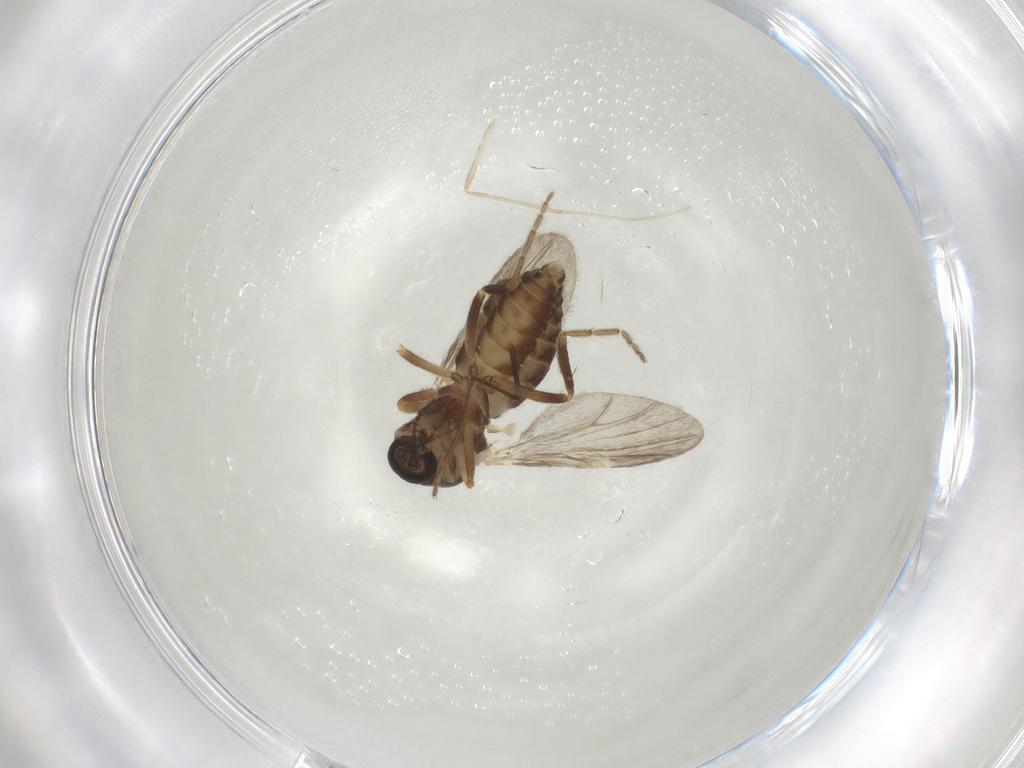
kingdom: Animalia
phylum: Arthropoda
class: Insecta
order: Diptera
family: Ceratopogonidae
